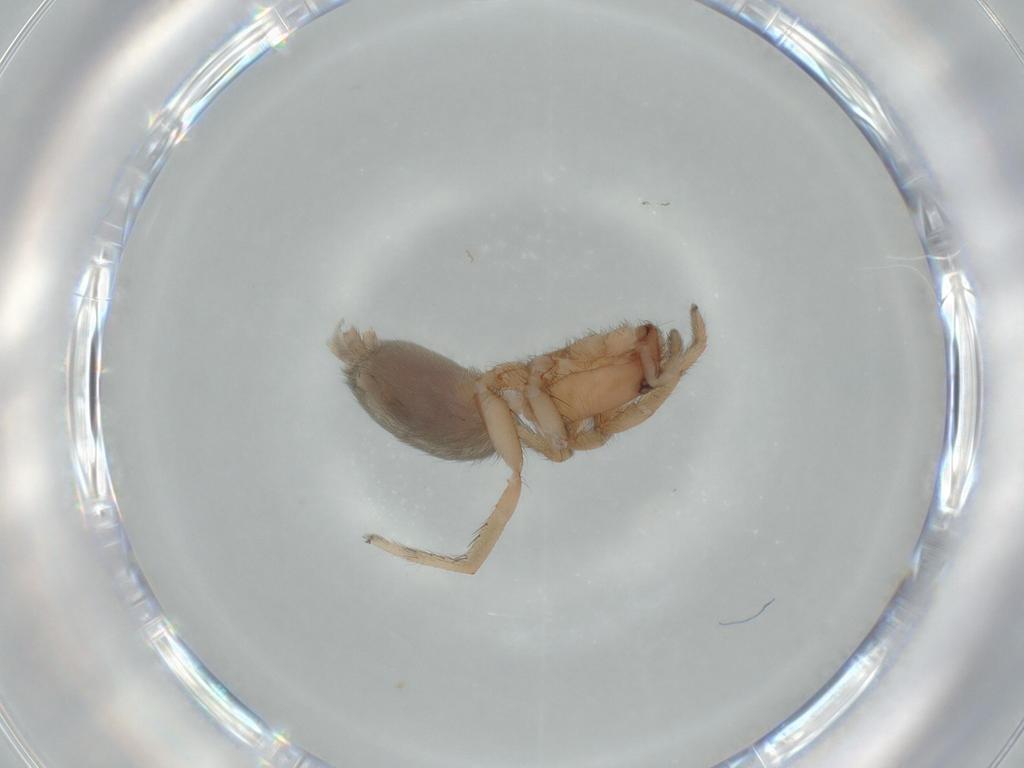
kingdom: Animalia
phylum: Arthropoda
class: Arachnida
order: Araneae
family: Gnaphosidae
